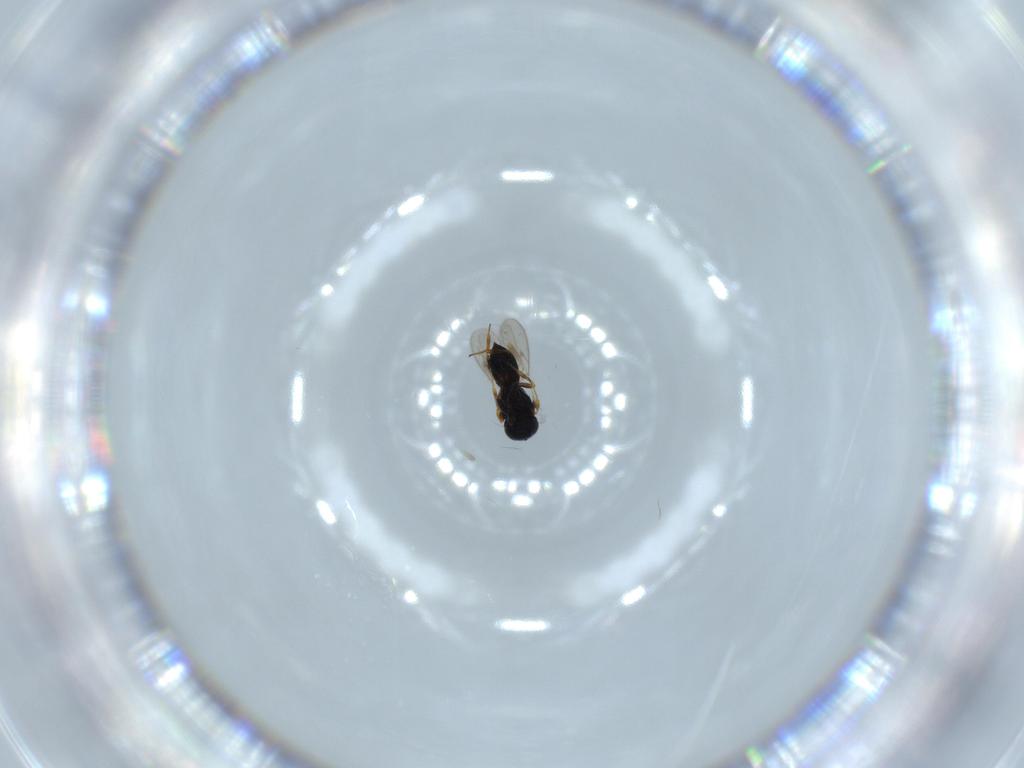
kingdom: Animalia
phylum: Arthropoda
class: Insecta
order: Hymenoptera
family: Scelionidae
